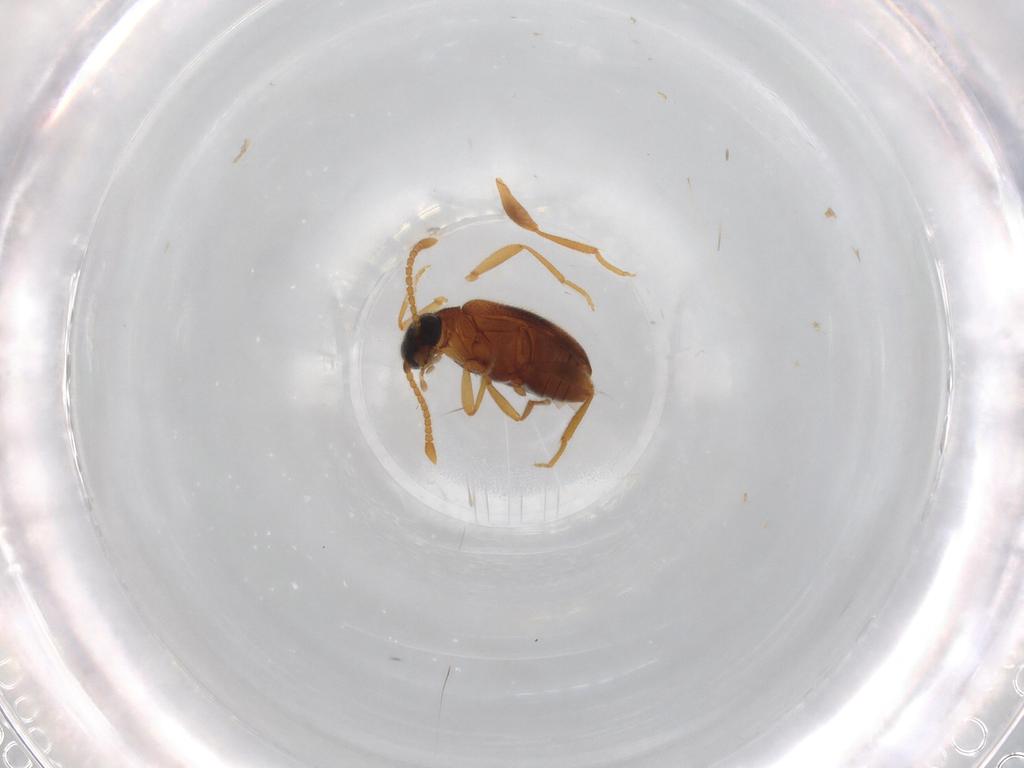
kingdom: Animalia
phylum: Arthropoda
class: Insecta
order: Coleoptera
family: Aderidae
